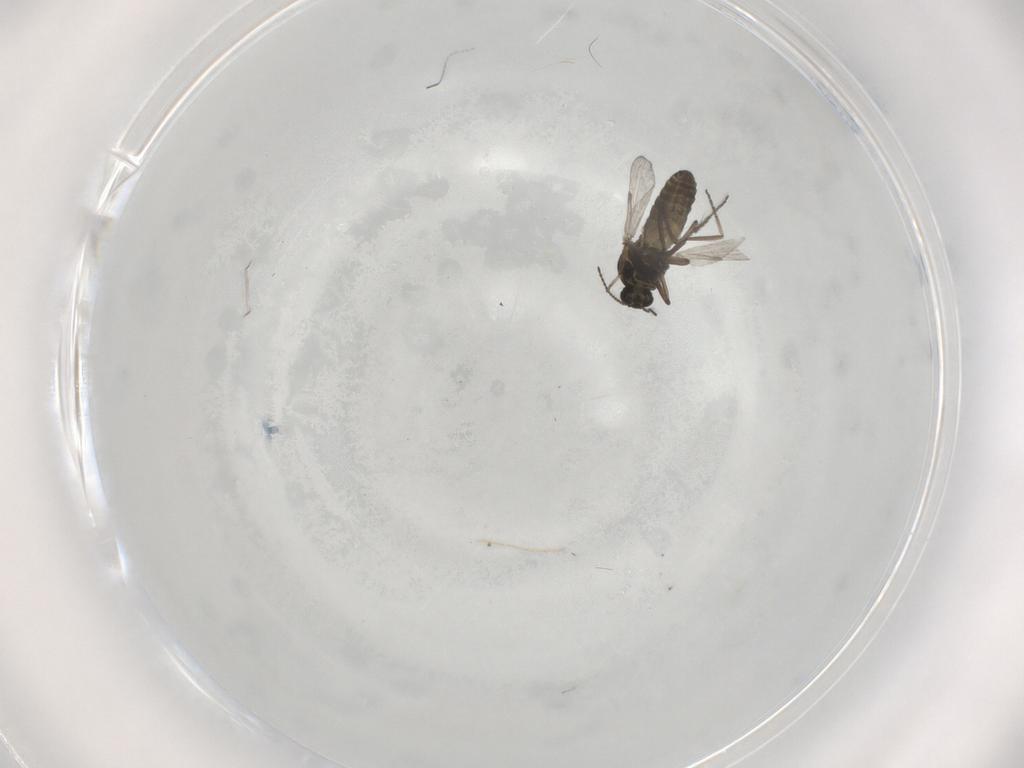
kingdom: Animalia
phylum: Arthropoda
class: Insecta
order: Diptera
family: Ceratopogonidae
